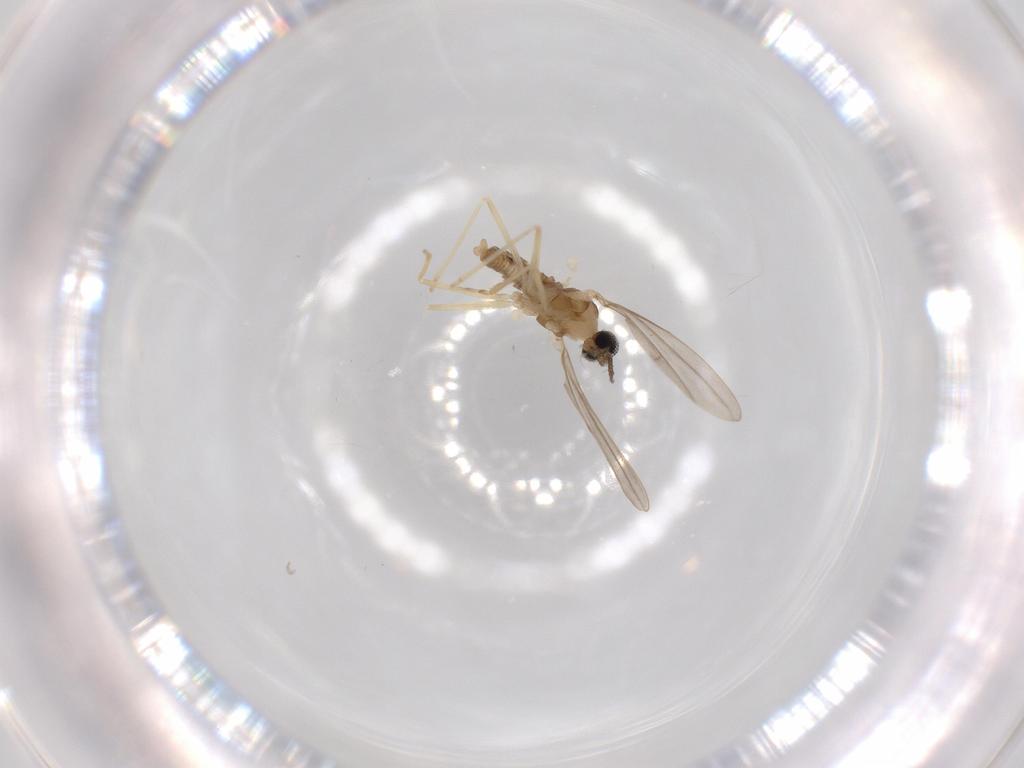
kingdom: Animalia
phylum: Arthropoda
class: Insecta
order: Diptera
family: Cecidomyiidae
